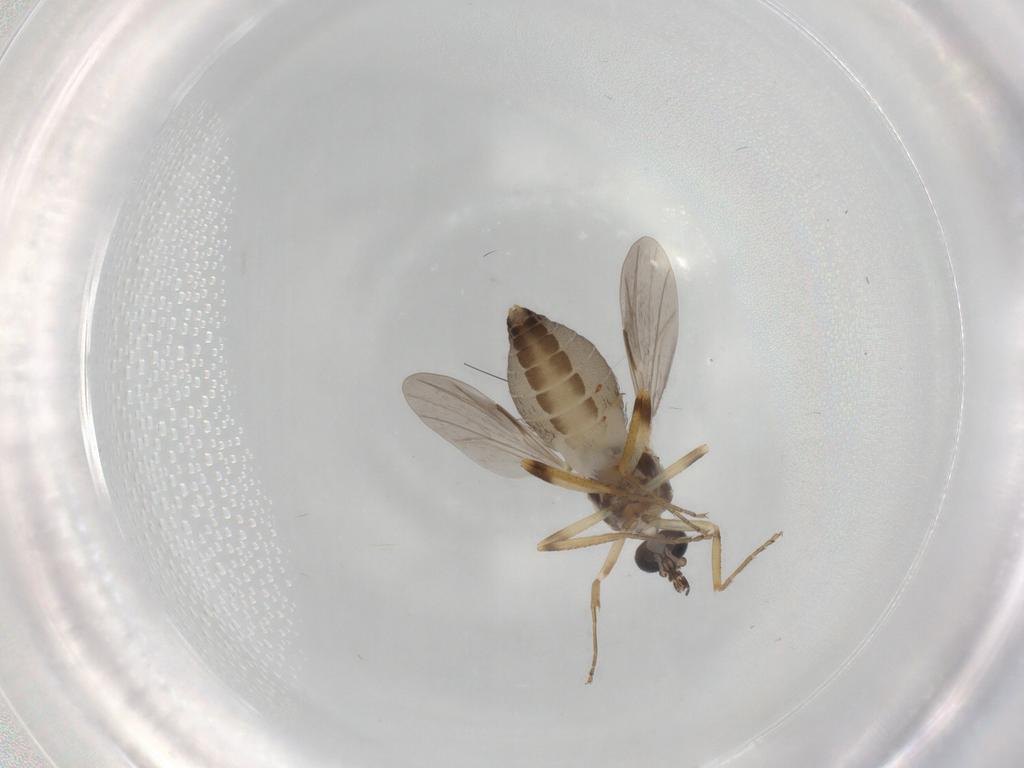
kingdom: Animalia
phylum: Arthropoda
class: Insecta
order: Diptera
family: Ceratopogonidae
